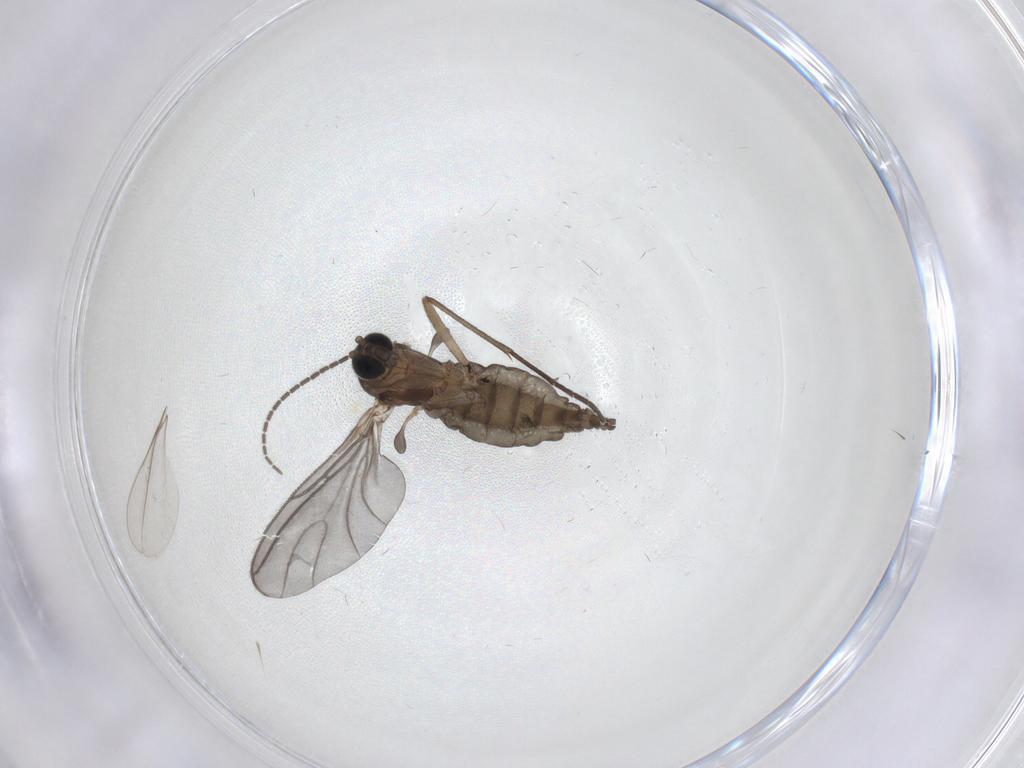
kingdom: Animalia
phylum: Arthropoda
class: Insecta
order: Diptera
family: Sciaridae
